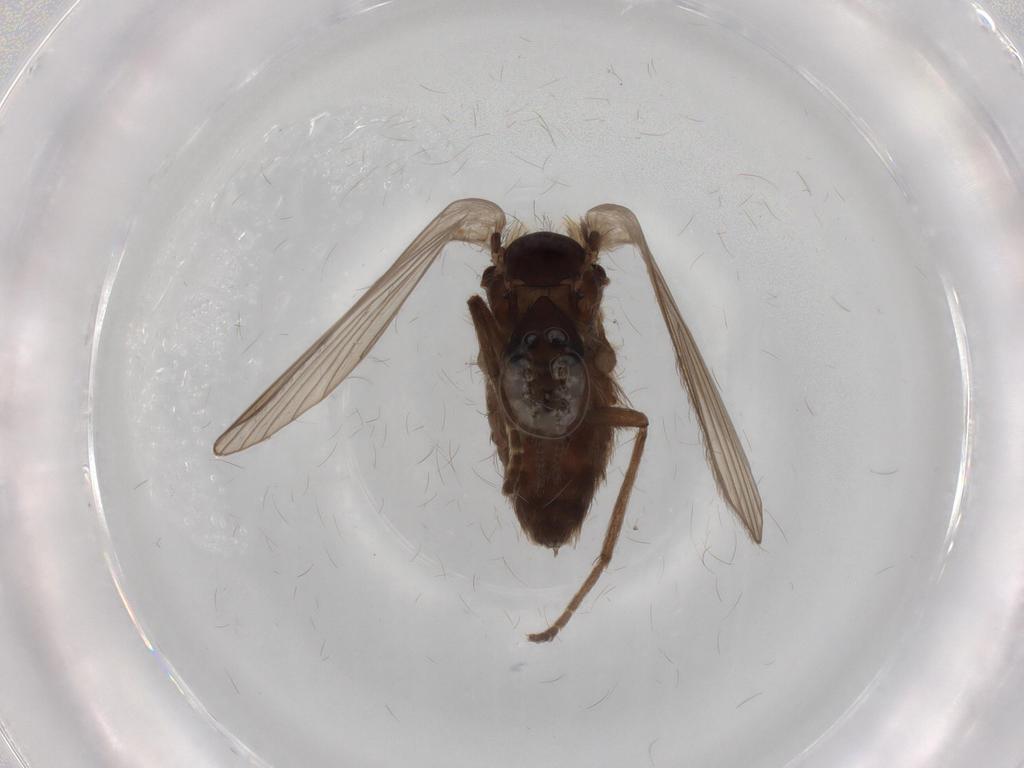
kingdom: Animalia
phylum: Arthropoda
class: Insecta
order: Diptera
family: Psychodidae
